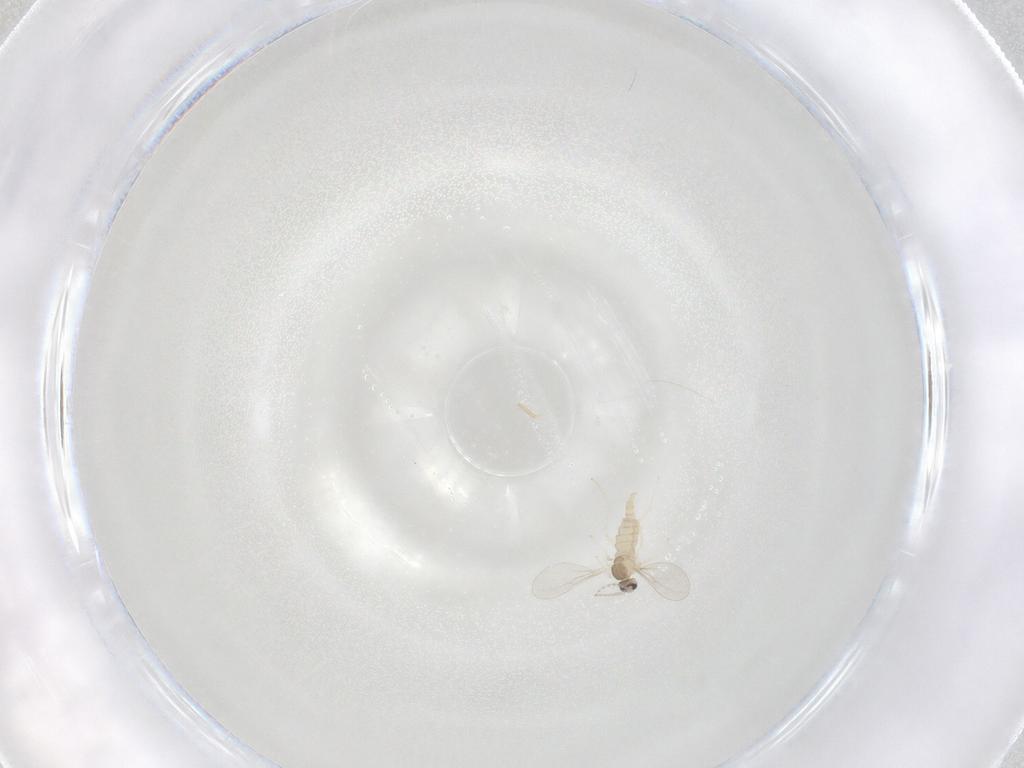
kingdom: Animalia
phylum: Arthropoda
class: Insecta
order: Diptera
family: Cecidomyiidae
